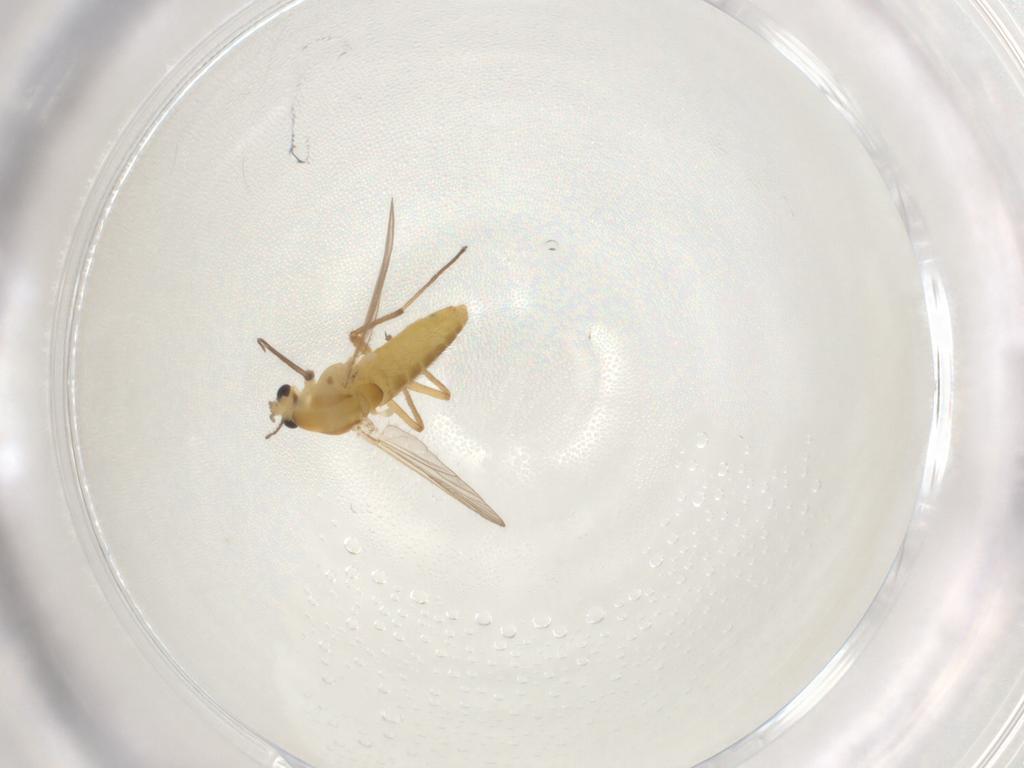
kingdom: Animalia
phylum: Arthropoda
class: Insecta
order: Diptera
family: Chironomidae
